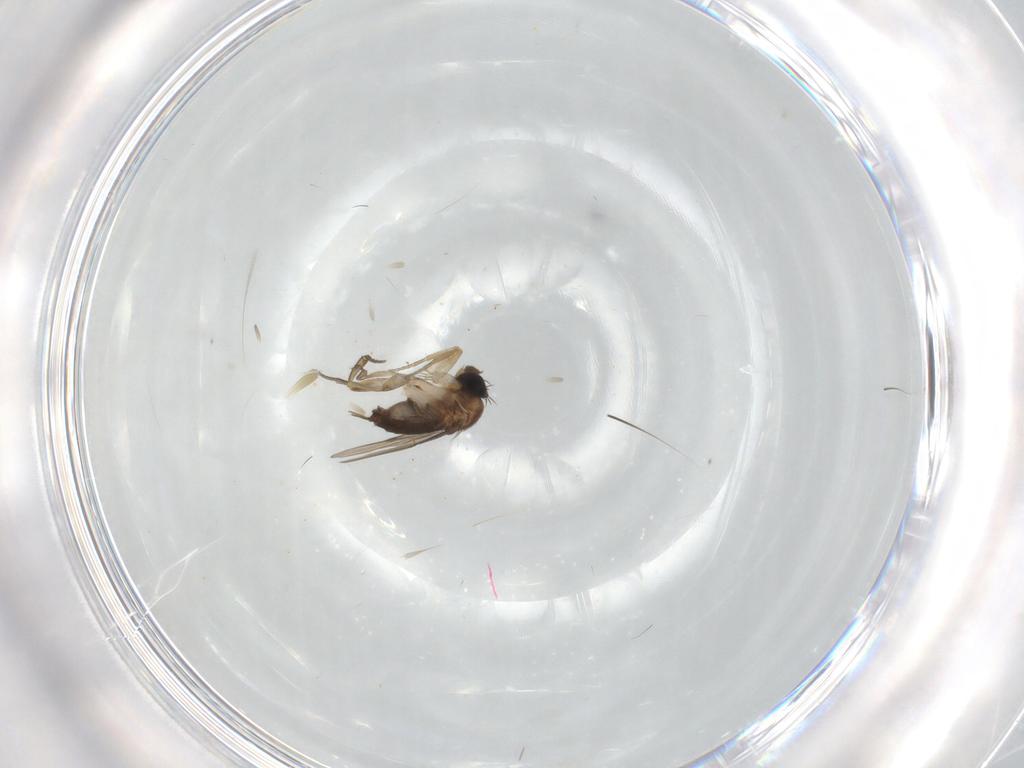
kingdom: Animalia
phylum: Arthropoda
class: Insecta
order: Diptera
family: Phoridae
